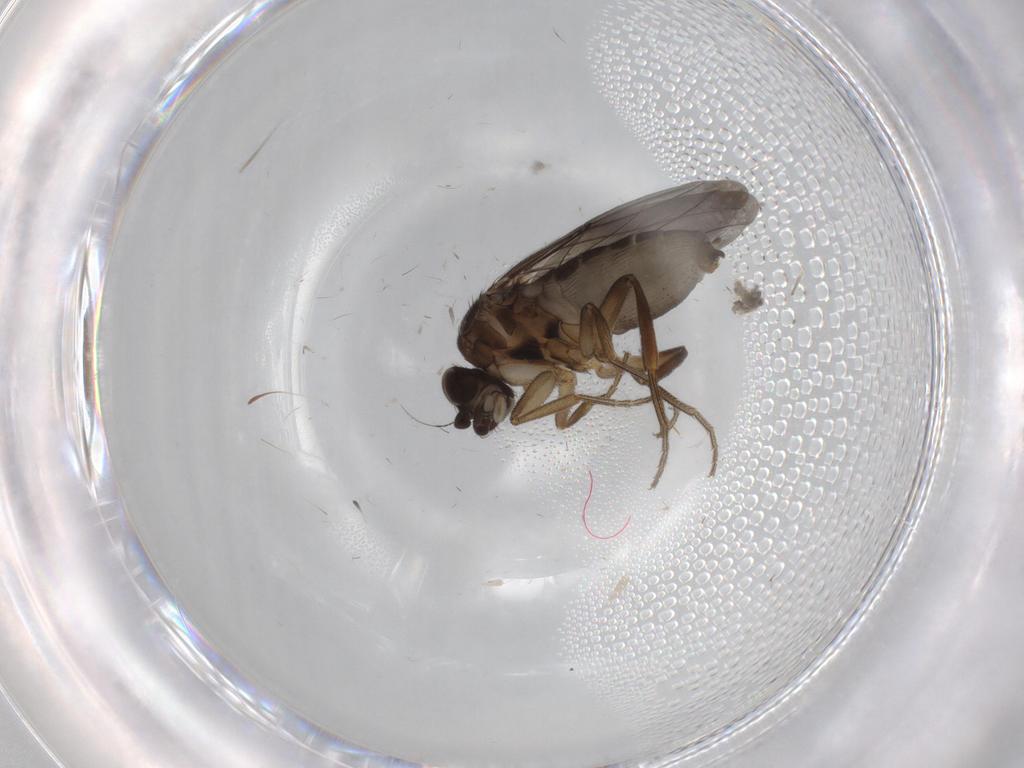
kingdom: Animalia
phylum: Arthropoda
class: Insecta
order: Diptera
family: Phoridae
